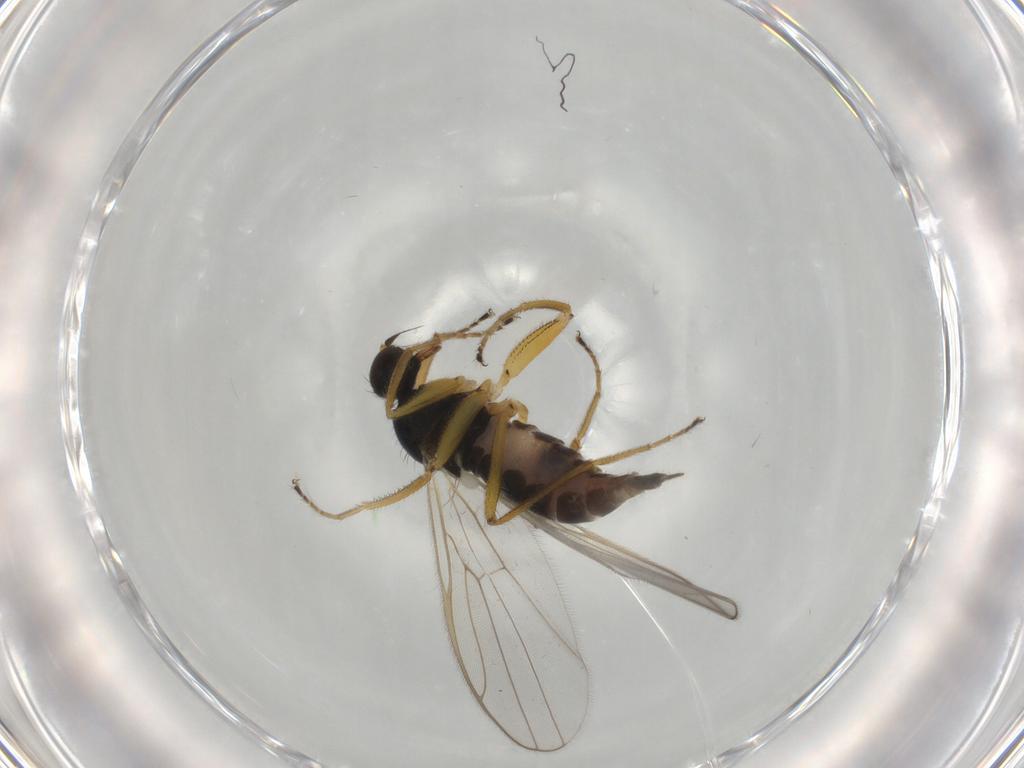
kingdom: Animalia
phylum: Arthropoda
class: Insecta
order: Diptera
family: Hybotidae
